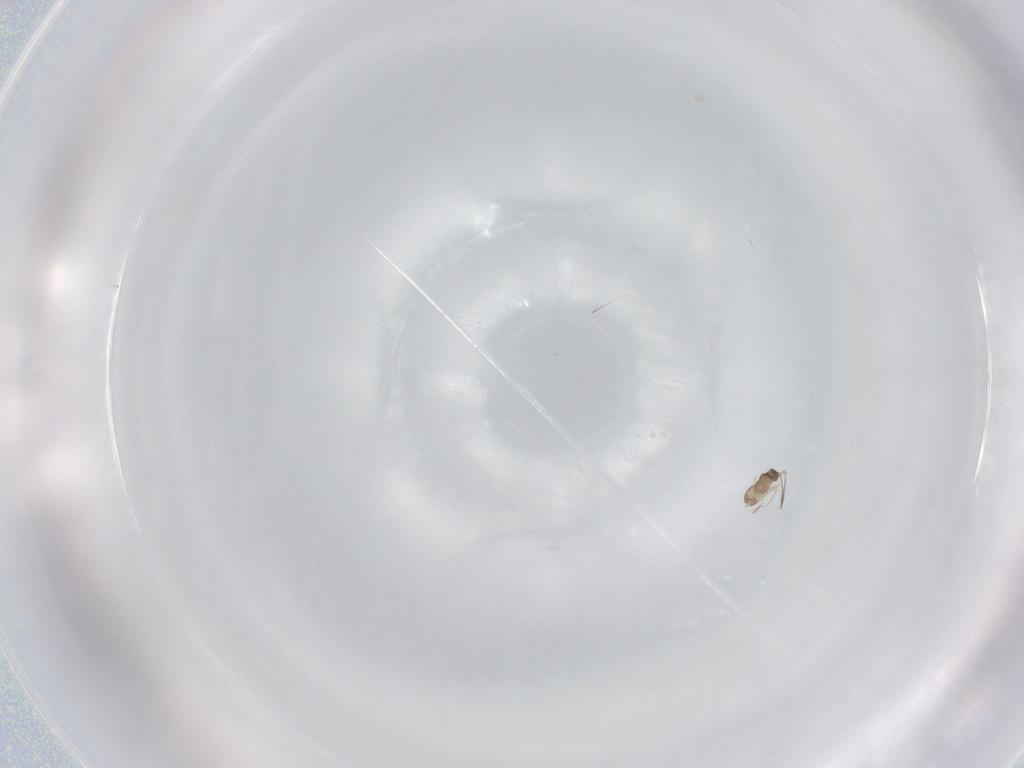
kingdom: Animalia
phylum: Arthropoda
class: Insecta
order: Hymenoptera
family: Mymaridae
